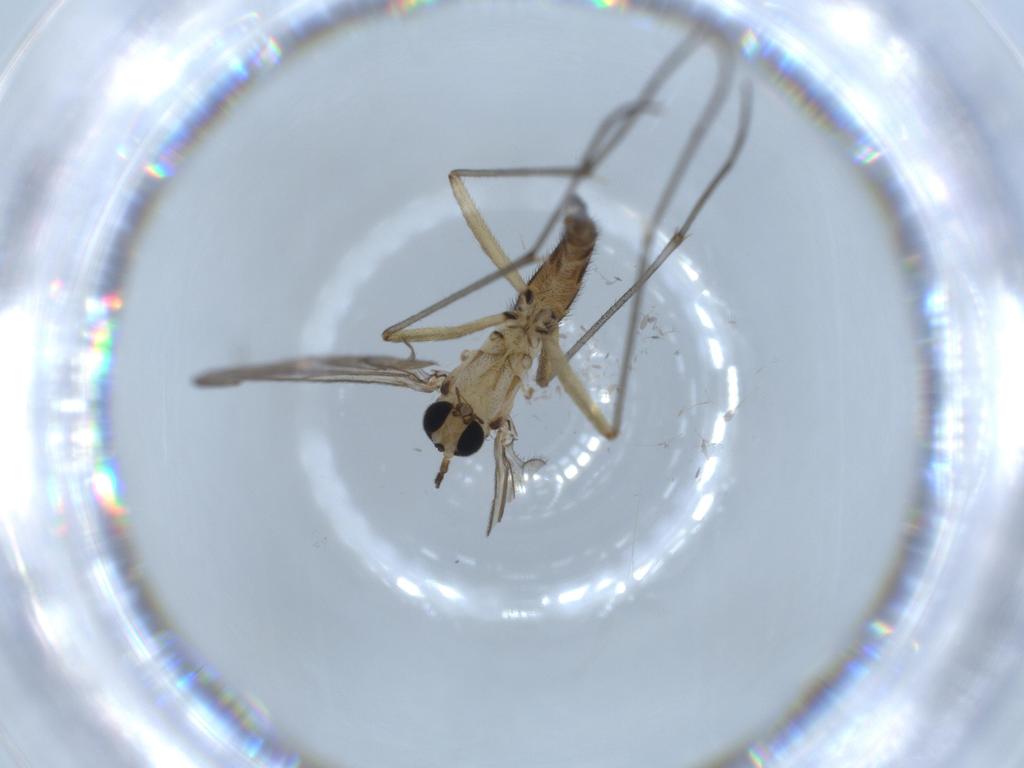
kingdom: Animalia
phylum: Arthropoda
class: Insecta
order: Diptera
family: Sciaridae
